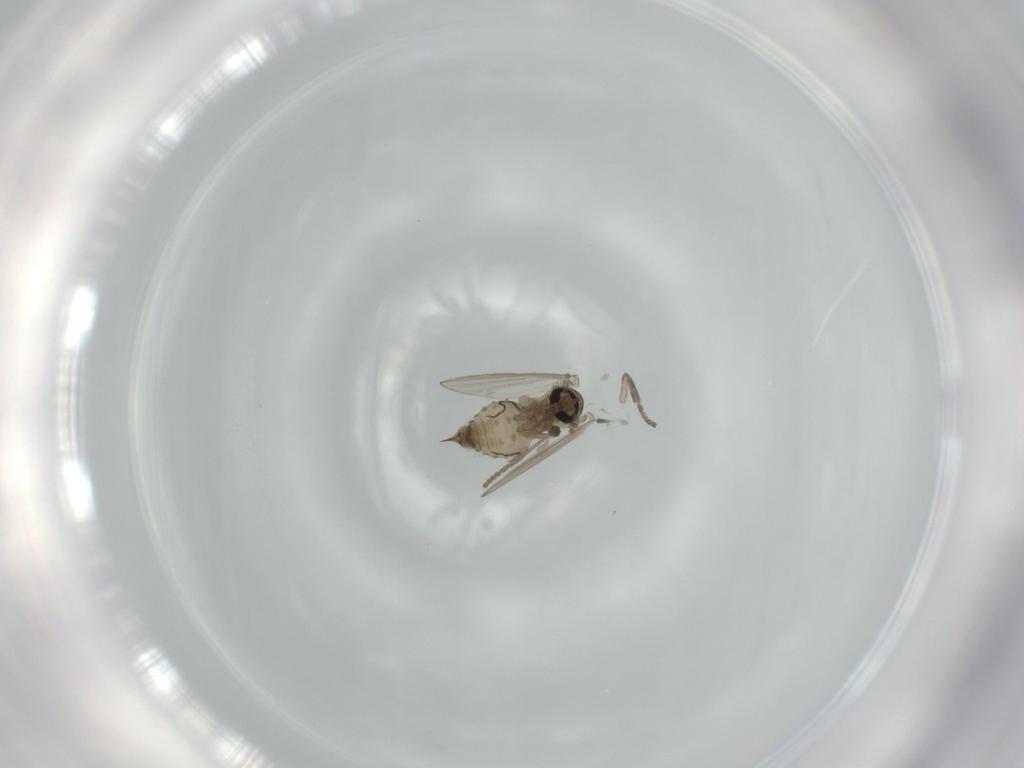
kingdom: Animalia
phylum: Arthropoda
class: Insecta
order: Diptera
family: Psychodidae
